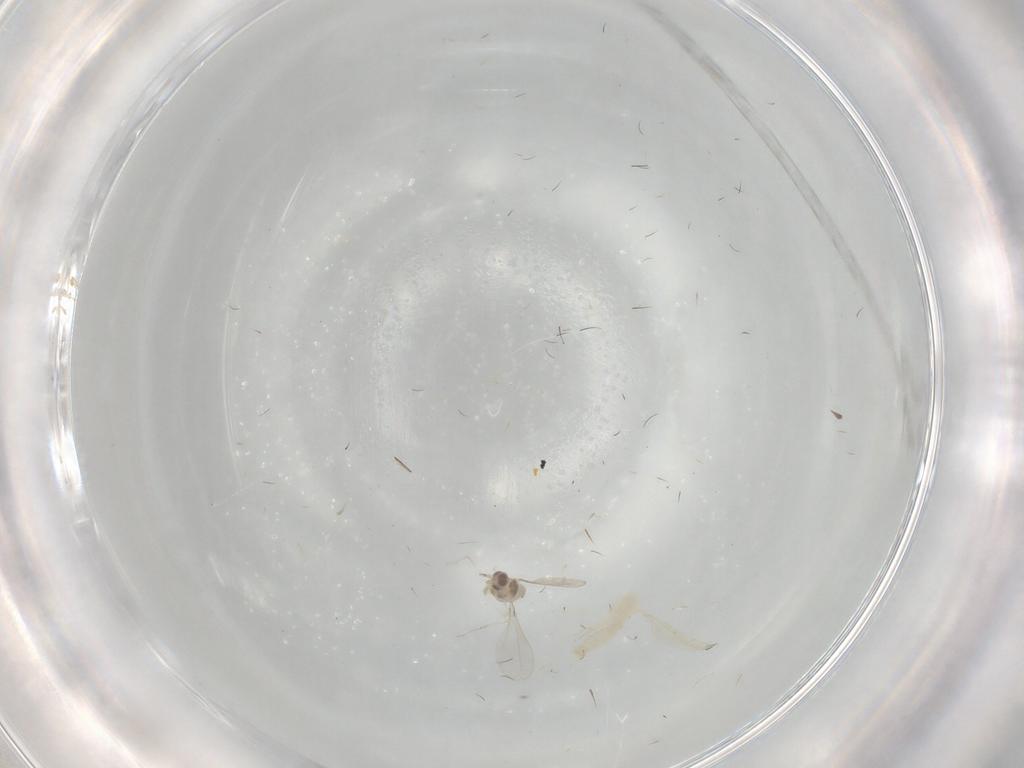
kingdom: Animalia
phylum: Arthropoda
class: Insecta
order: Diptera
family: Cecidomyiidae
